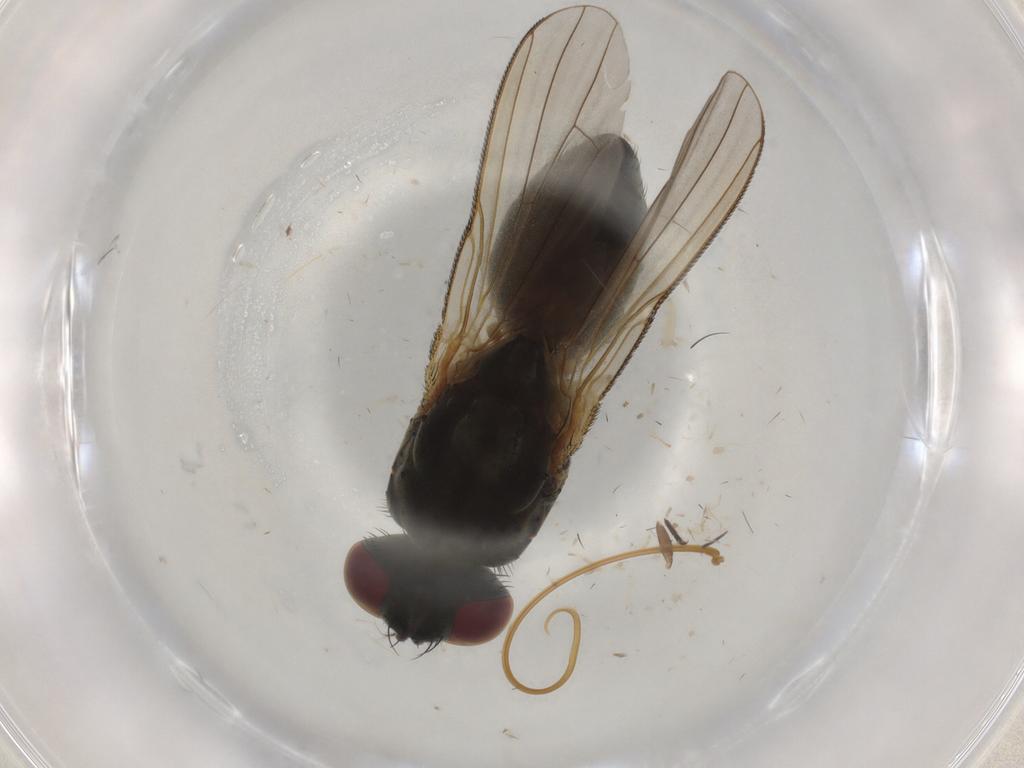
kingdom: Animalia
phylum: Arthropoda
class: Insecta
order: Diptera
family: Muscidae
